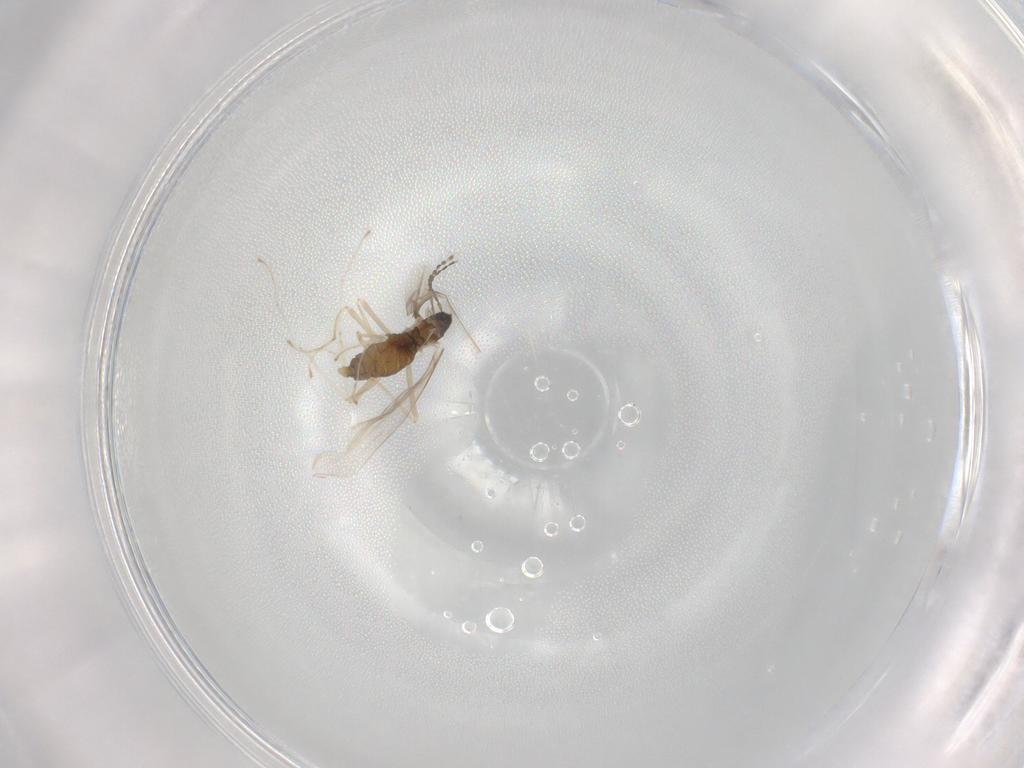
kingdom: Animalia
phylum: Arthropoda
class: Insecta
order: Diptera
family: Cecidomyiidae
